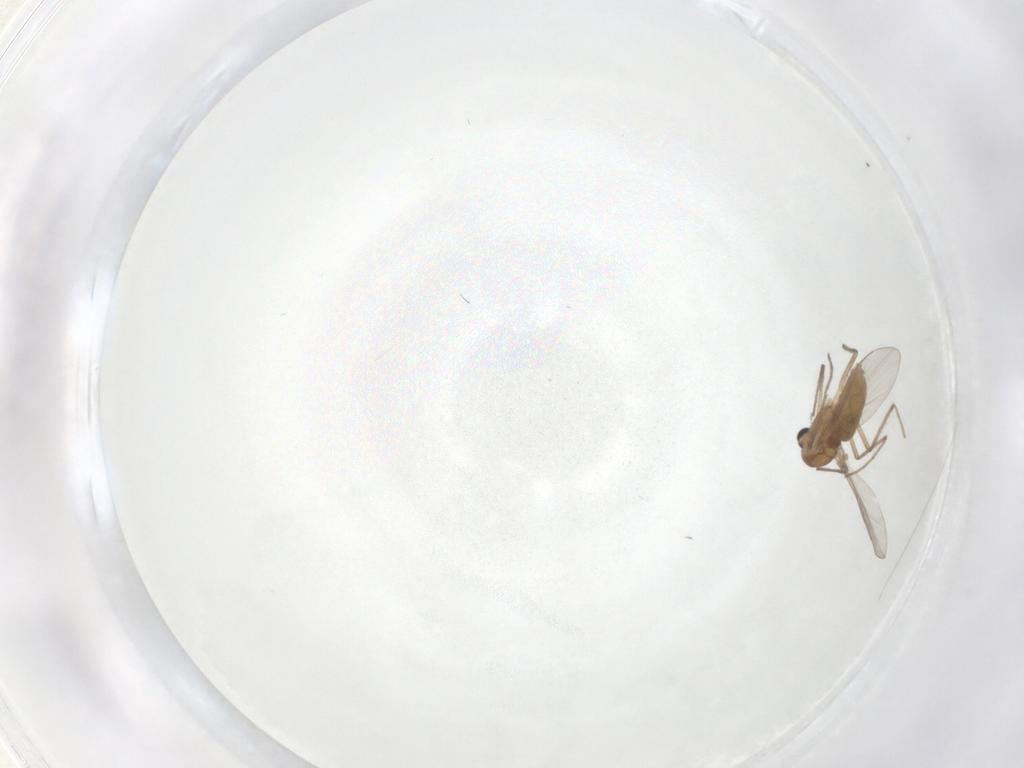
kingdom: Animalia
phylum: Arthropoda
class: Insecta
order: Diptera
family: Chironomidae
